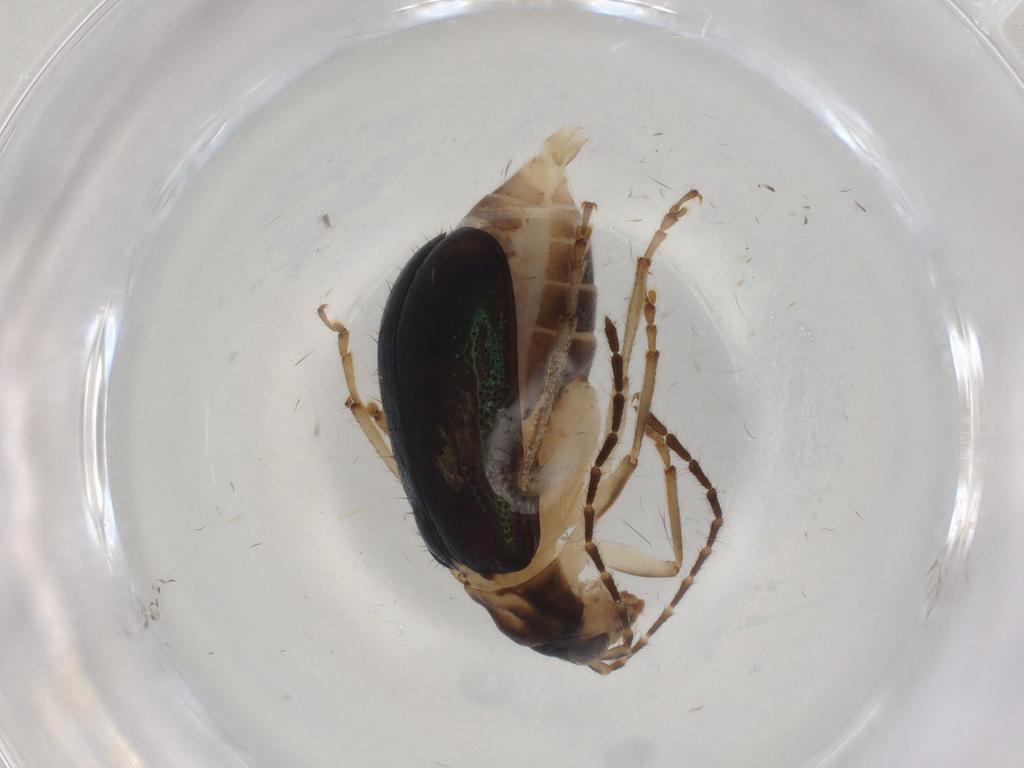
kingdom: Animalia
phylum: Arthropoda
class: Insecta
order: Coleoptera
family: Chrysomelidae
